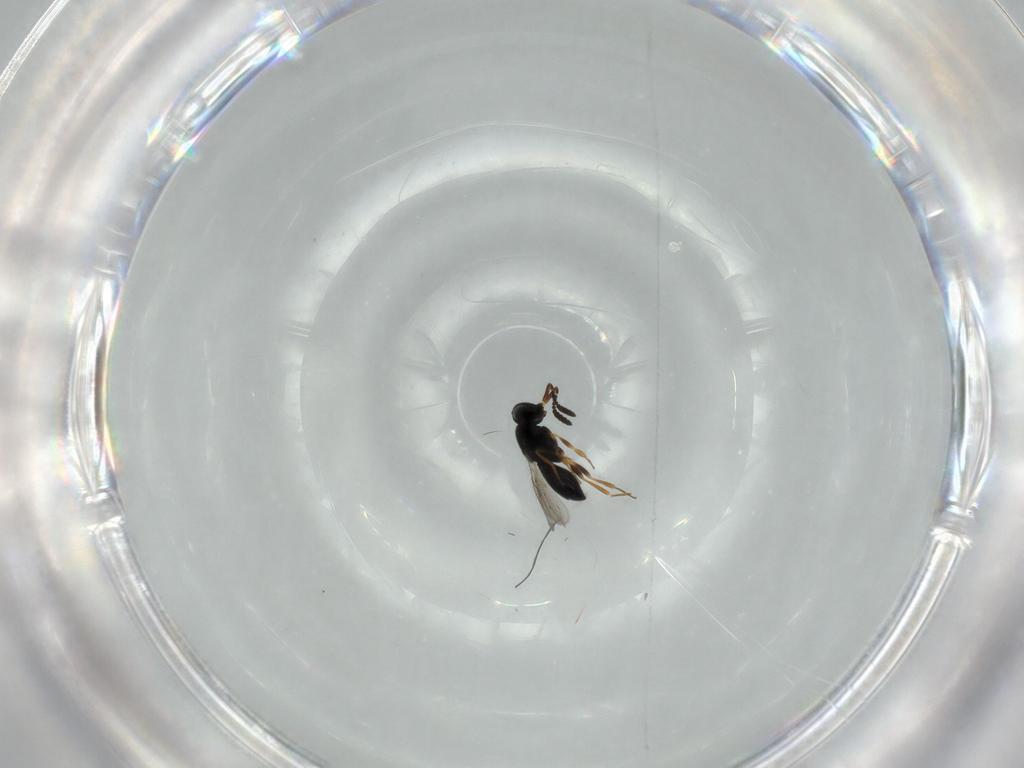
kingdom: Animalia
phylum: Arthropoda
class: Insecta
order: Hymenoptera
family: Scelionidae
